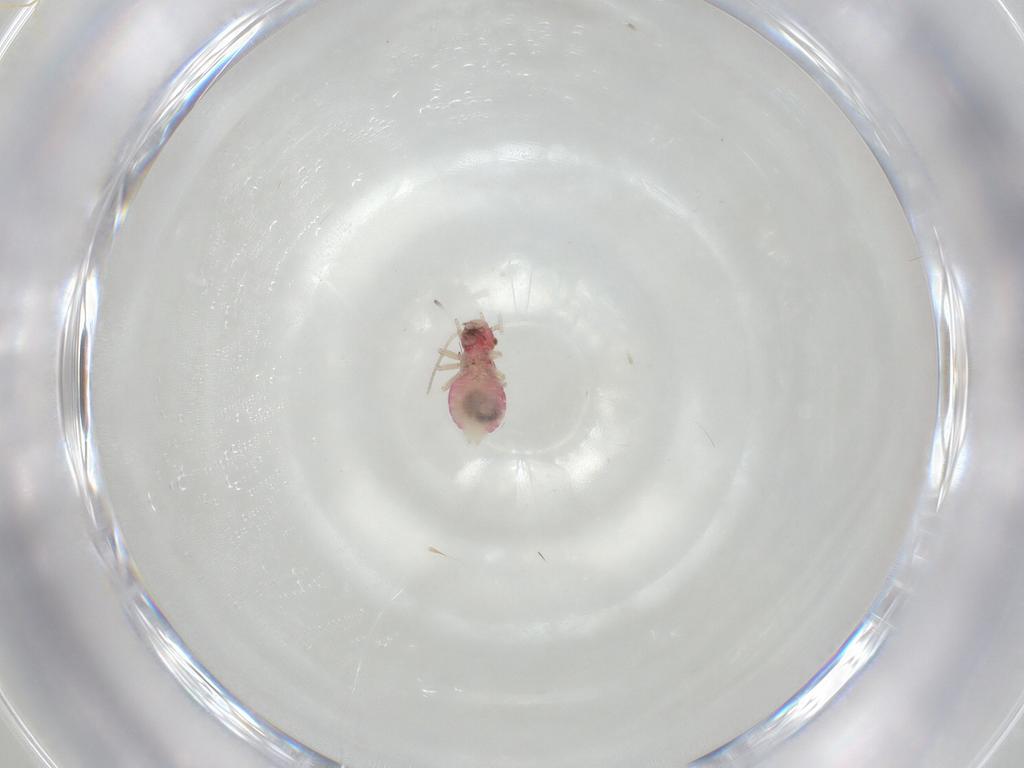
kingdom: Animalia
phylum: Arthropoda
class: Insecta
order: Psocodea
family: Caeciliusidae
